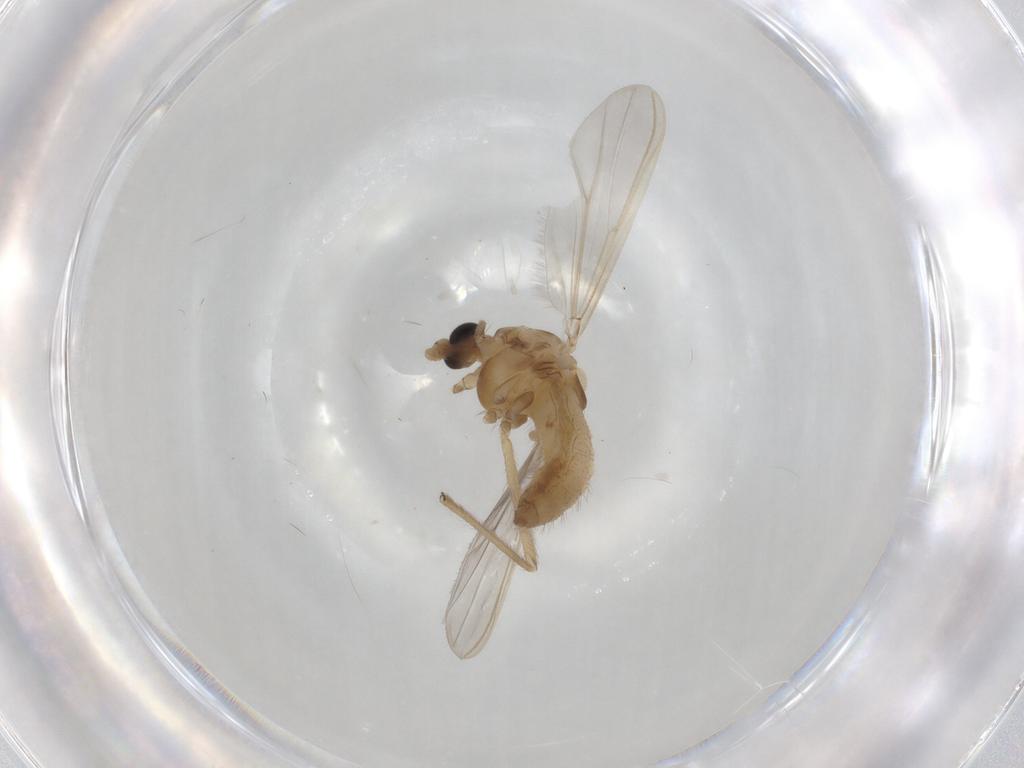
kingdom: Animalia
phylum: Arthropoda
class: Insecta
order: Diptera
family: Chironomidae
